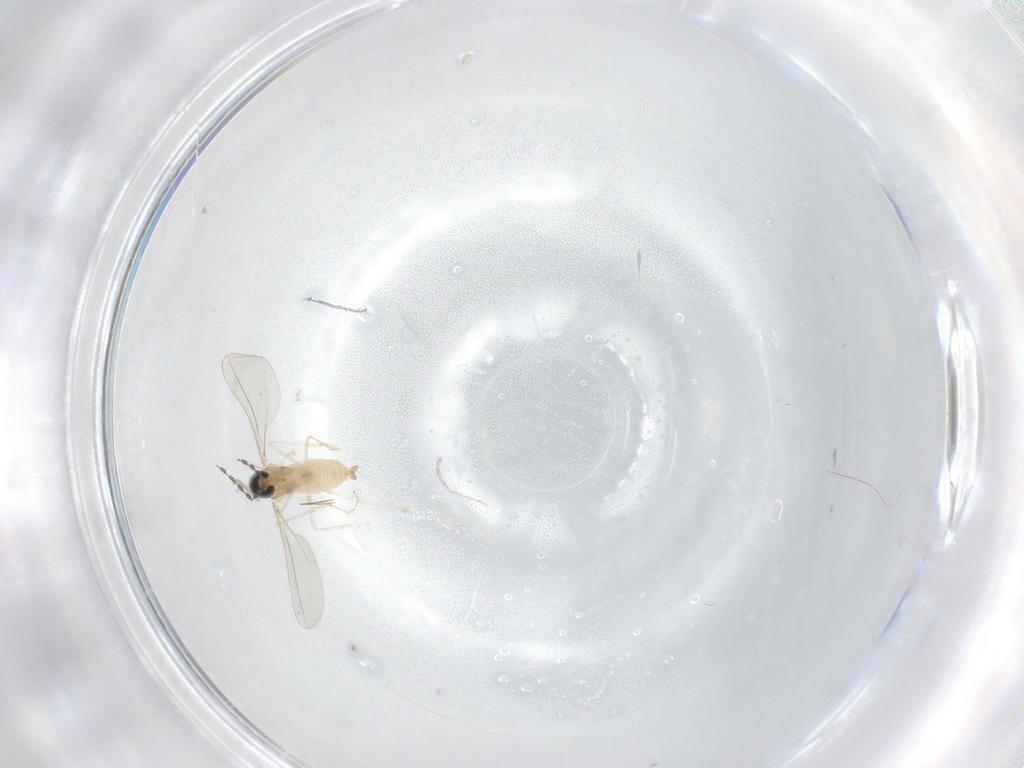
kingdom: Animalia
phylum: Arthropoda
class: Insecta
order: Diptera
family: Cecidomyiidae
